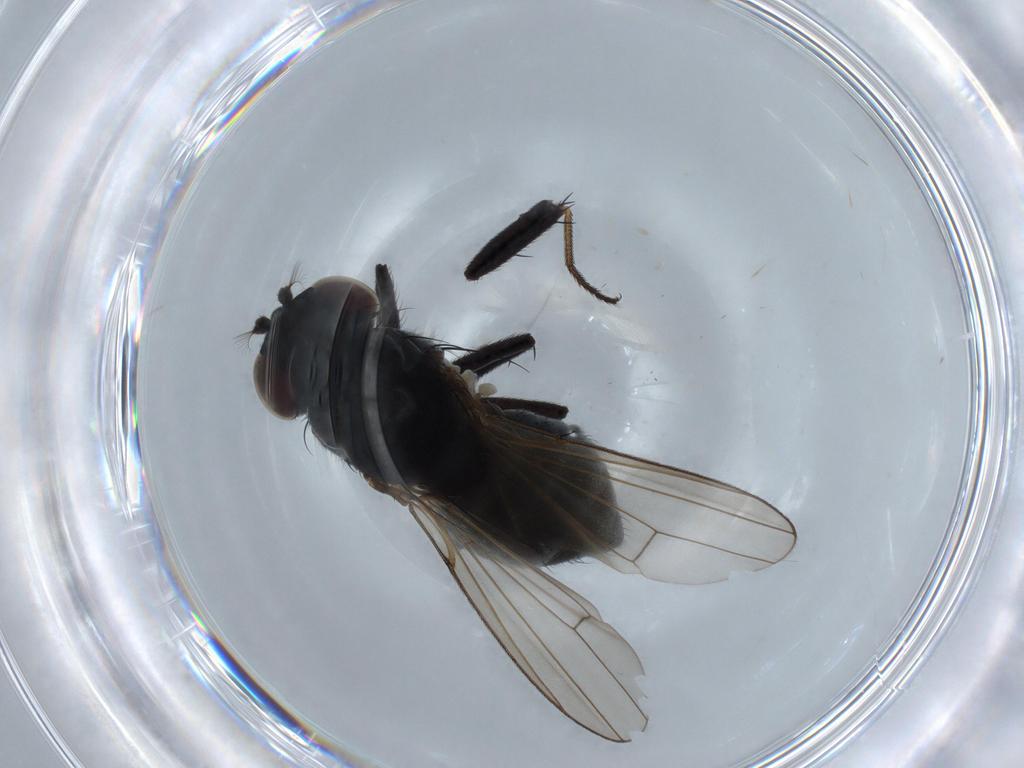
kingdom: Animalia
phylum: Arthropoda
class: Insecta
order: Diptera
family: Ephydridae
